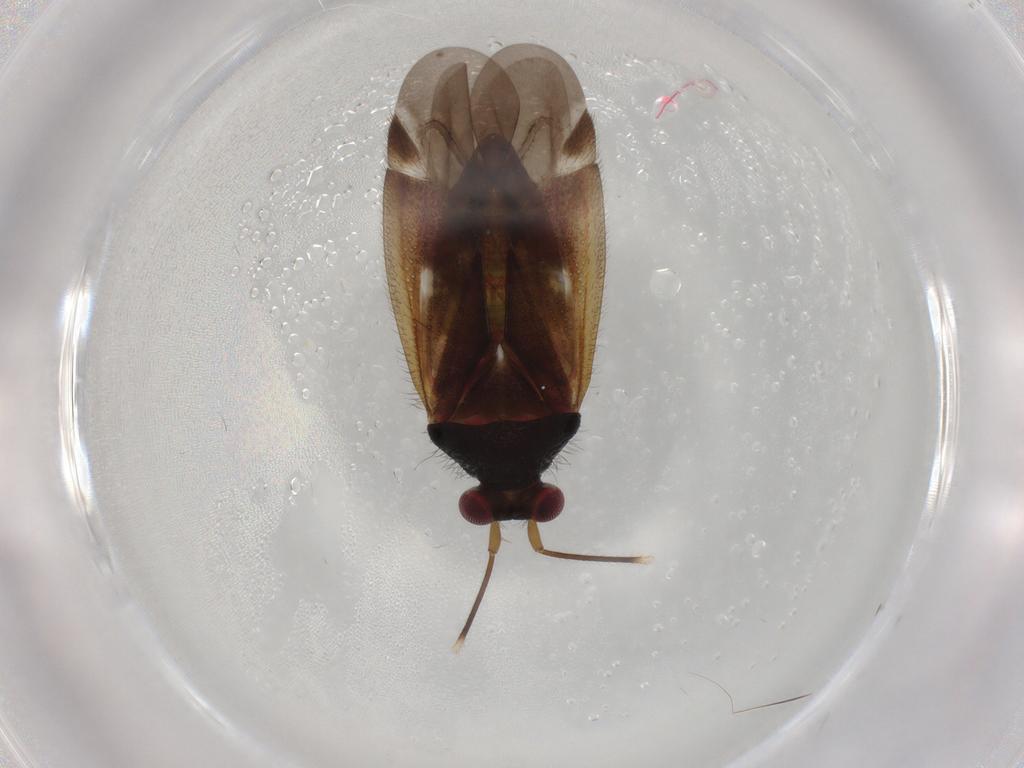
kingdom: Animalia
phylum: Arthropoda
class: Insecta
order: Hemiptera
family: Miridae
